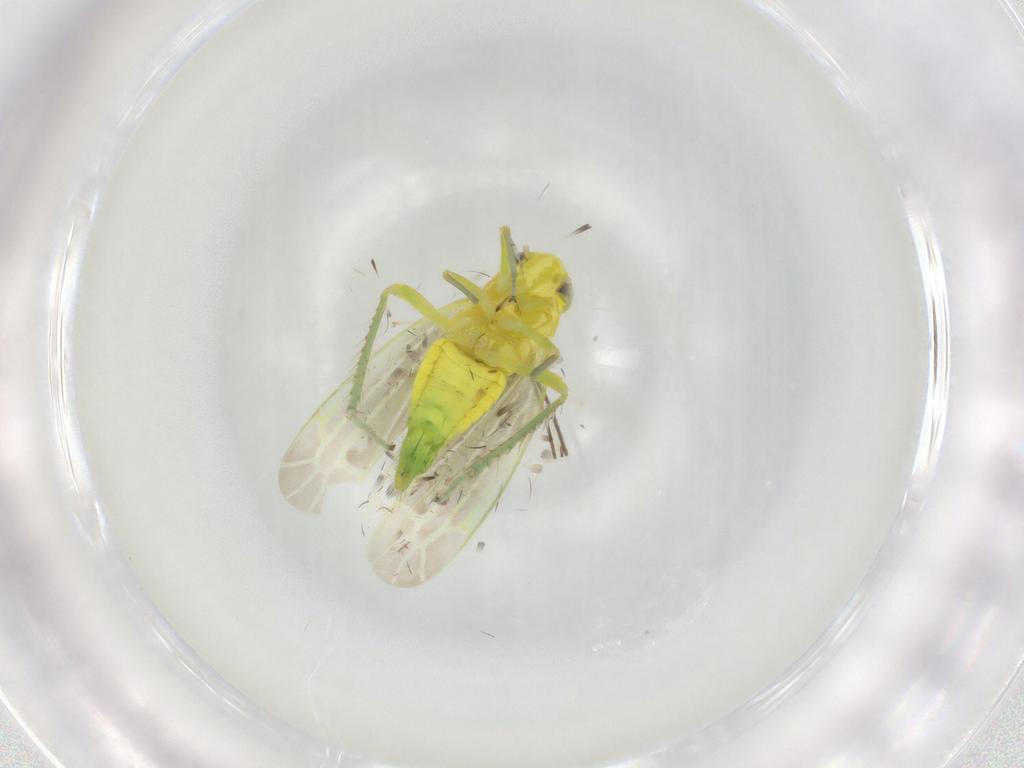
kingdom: Animalia
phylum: Arthropoda
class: Insecta
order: Hemiptera
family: Cicadellidae
